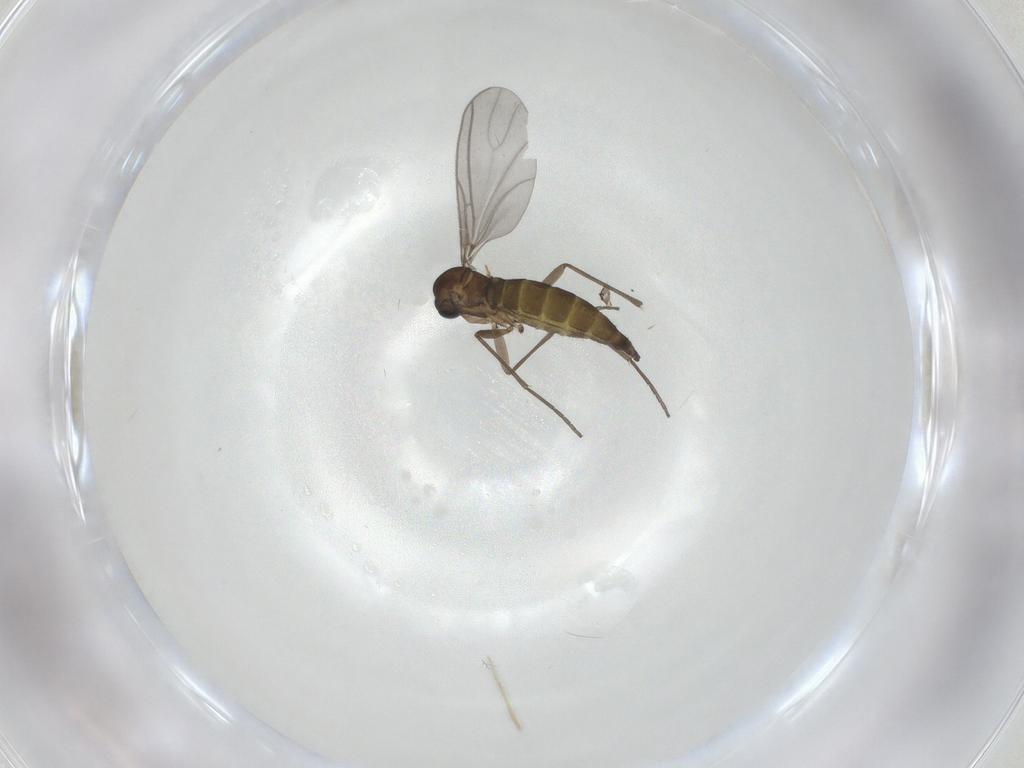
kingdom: Animalia
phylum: Arthropoda
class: Insecta
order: Diptera
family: Sciaridae
